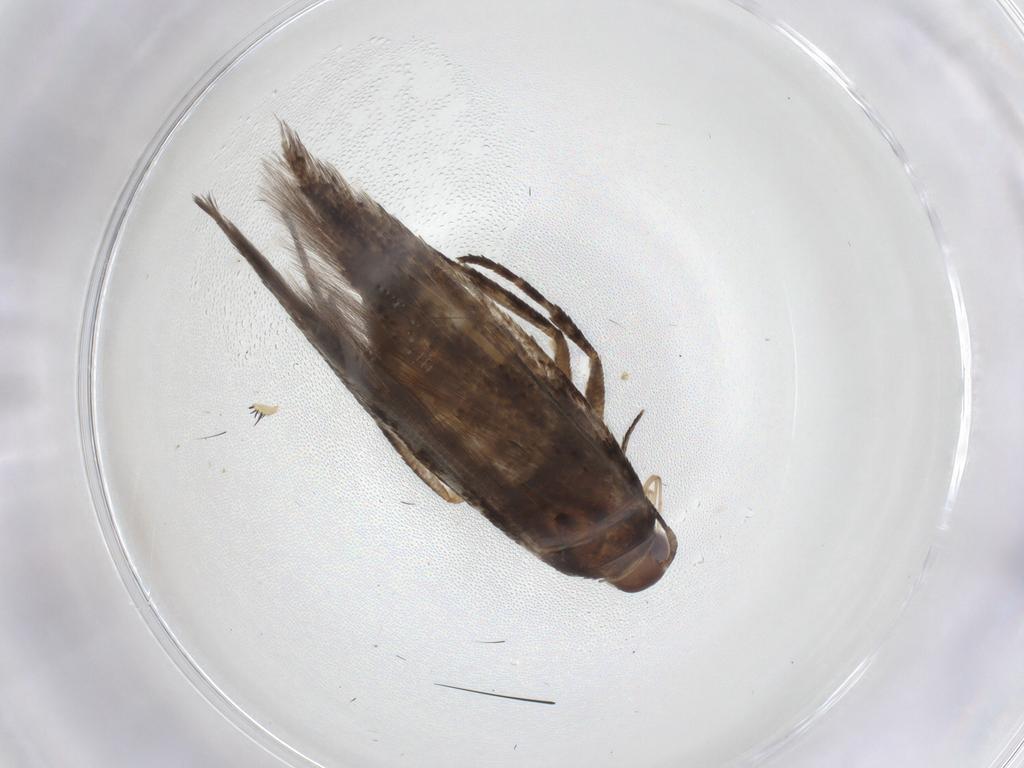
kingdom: Animalia
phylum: Arthropoda
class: Insecta
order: Lepidoptera
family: Gelechiidae
